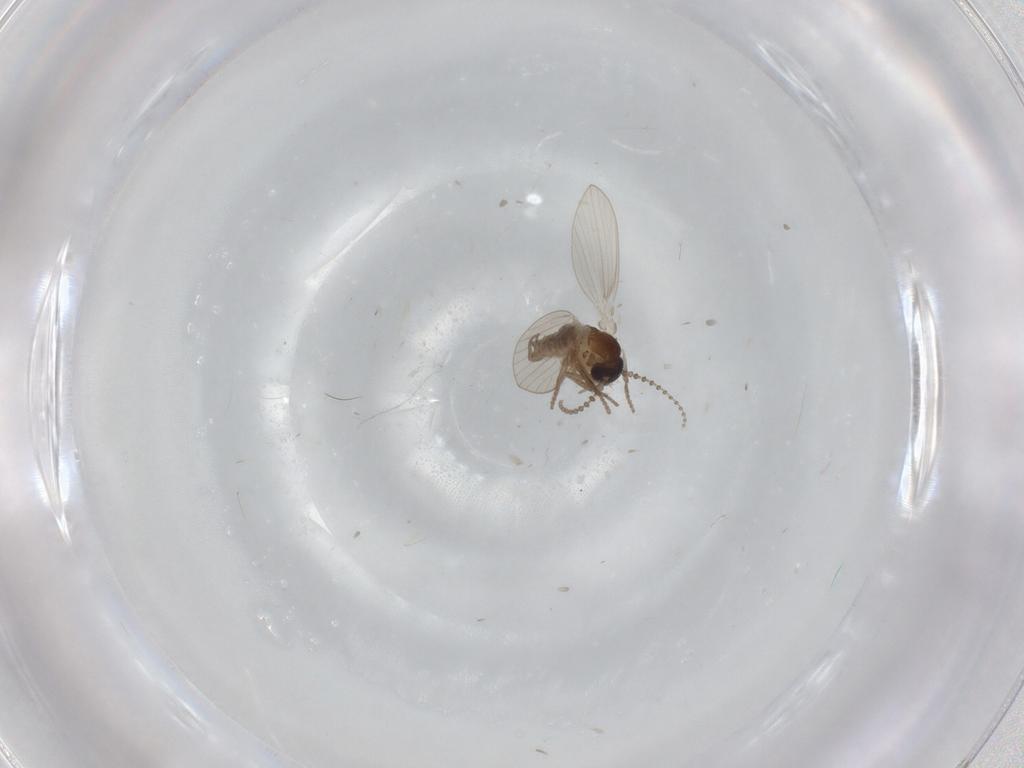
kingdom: Animalia
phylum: Arthropoda
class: Insecta
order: Diptera
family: Psychodidae
